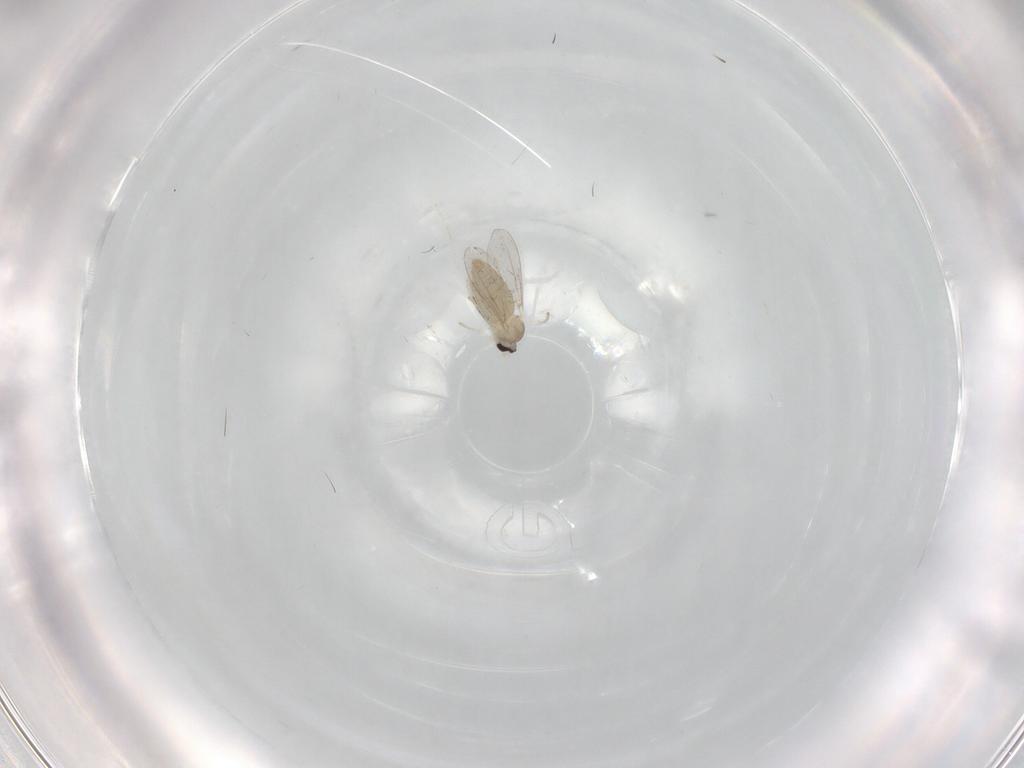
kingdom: Animalia
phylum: Arthropoda
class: Insecta
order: Diptera
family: Cecidomyiidae
